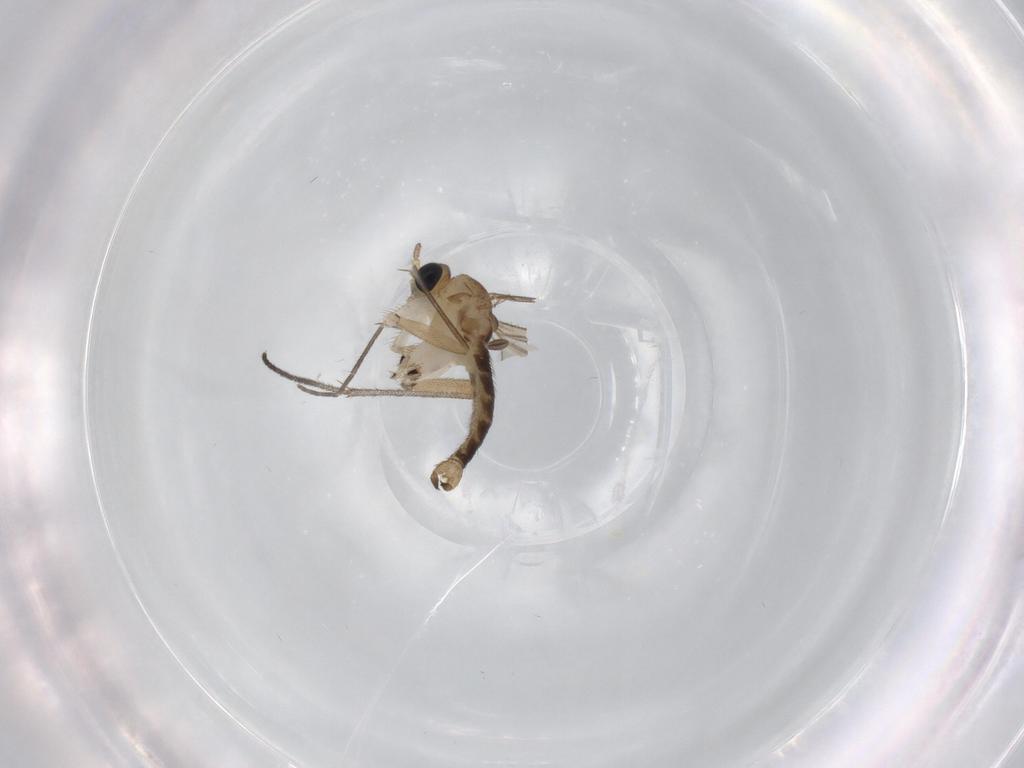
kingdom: Animalia
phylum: Arthropoda
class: Insecta
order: Diptera
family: Sciaridae
